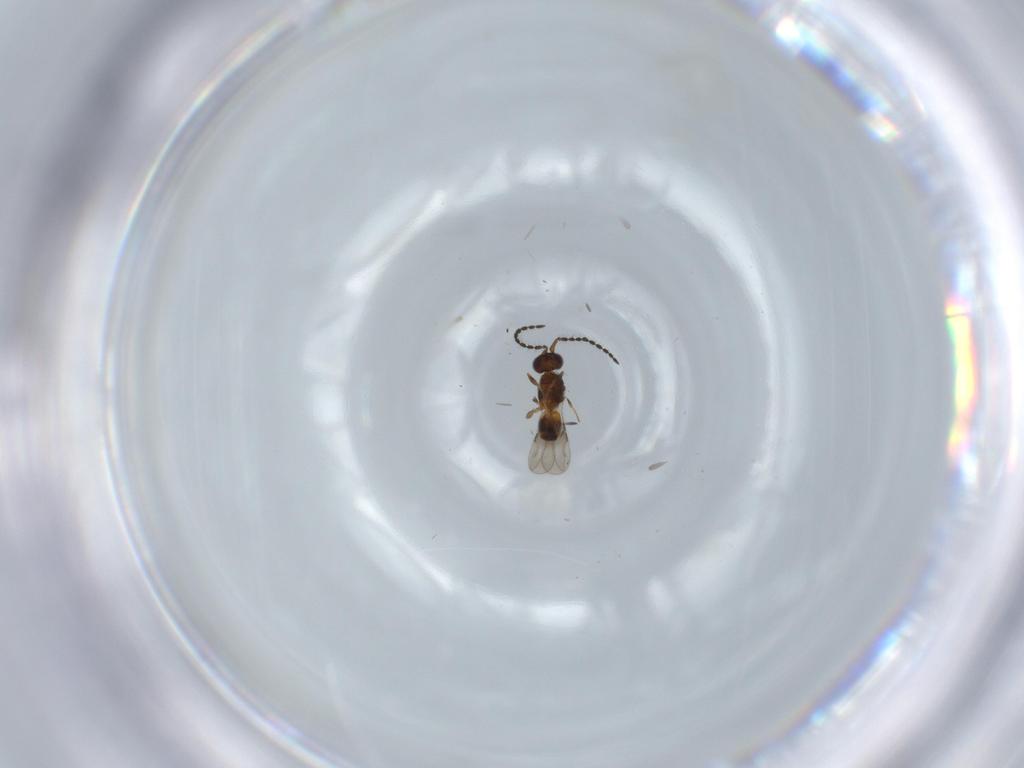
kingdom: Animalia
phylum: Arthropoda
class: Insecta
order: Hymenoptera
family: Ceraphronidae
